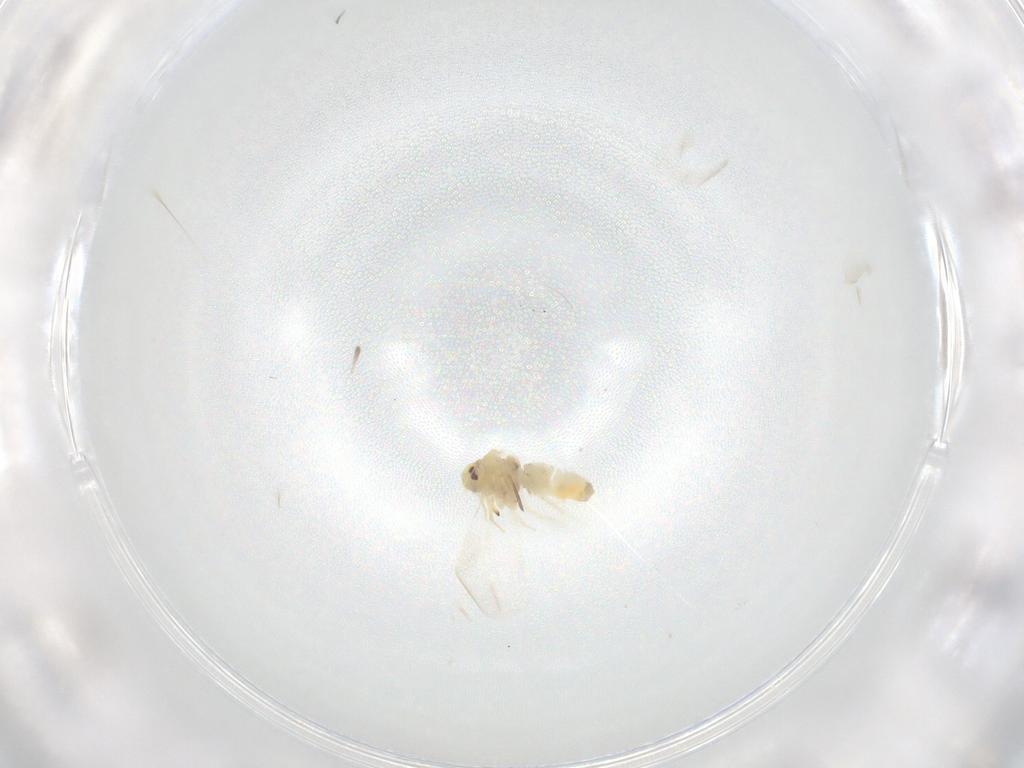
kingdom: Animalia
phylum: Arthropoda
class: Insecta
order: Hemiptera
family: Aleyrodidae
